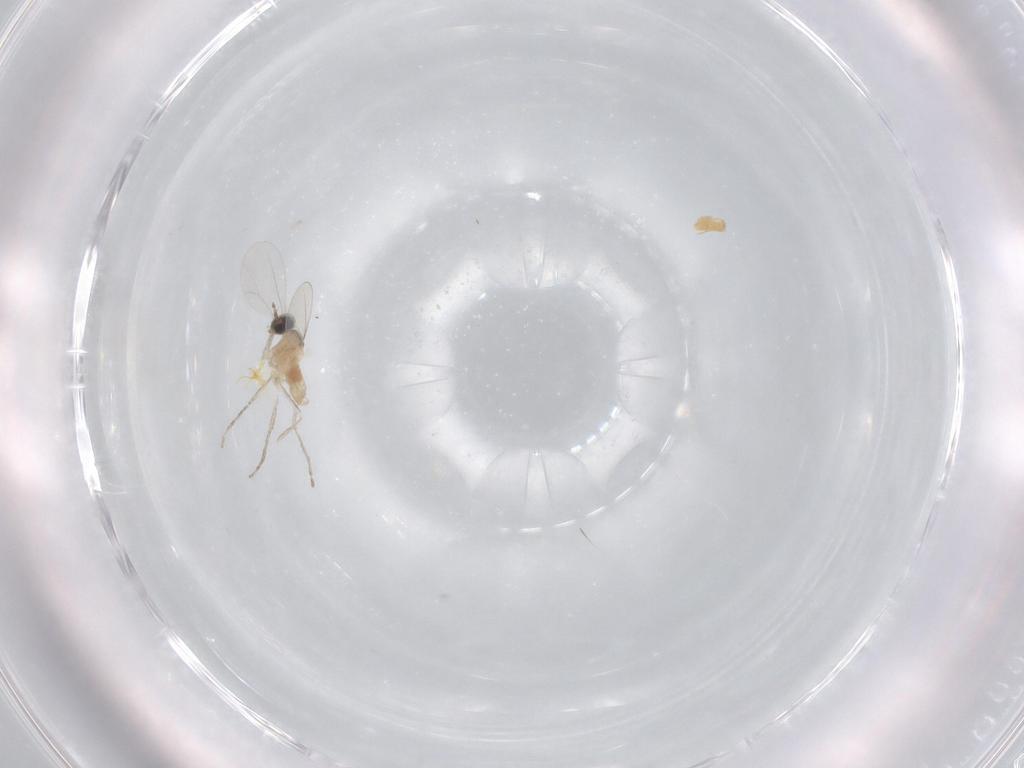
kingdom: Animalia
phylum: Arthropoda
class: Insecta
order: Diptera
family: Cecidomyiidae
